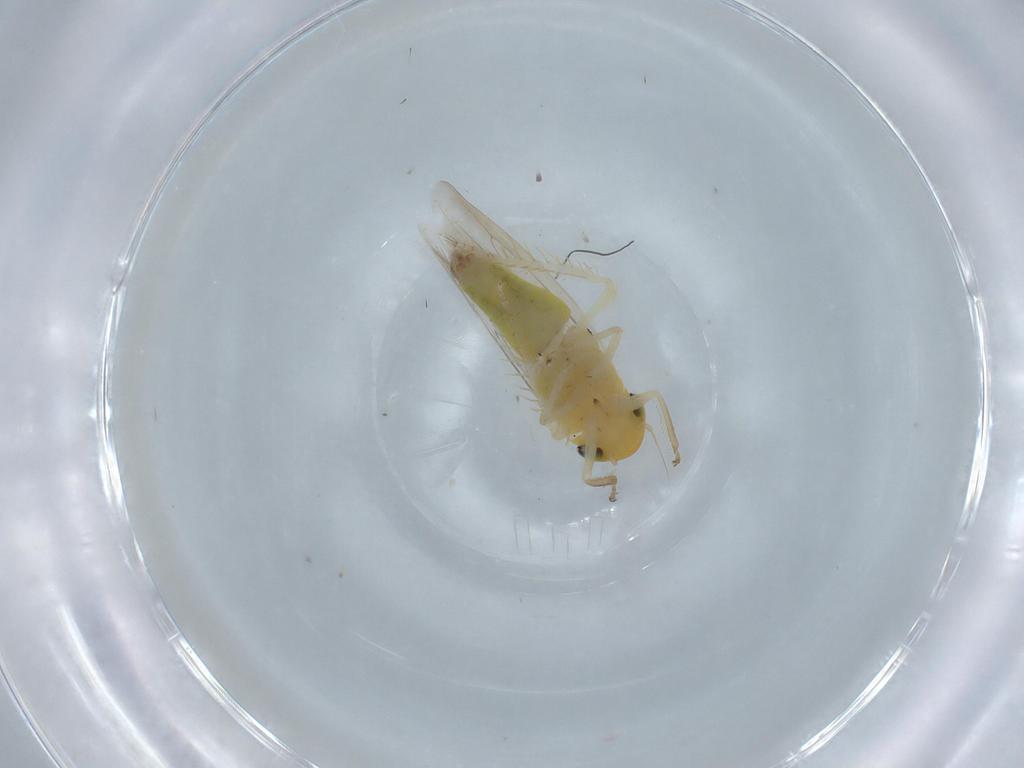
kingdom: Animalia
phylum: Arthropoda
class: Insecta
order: Hemiptera
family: Cicadellidae
